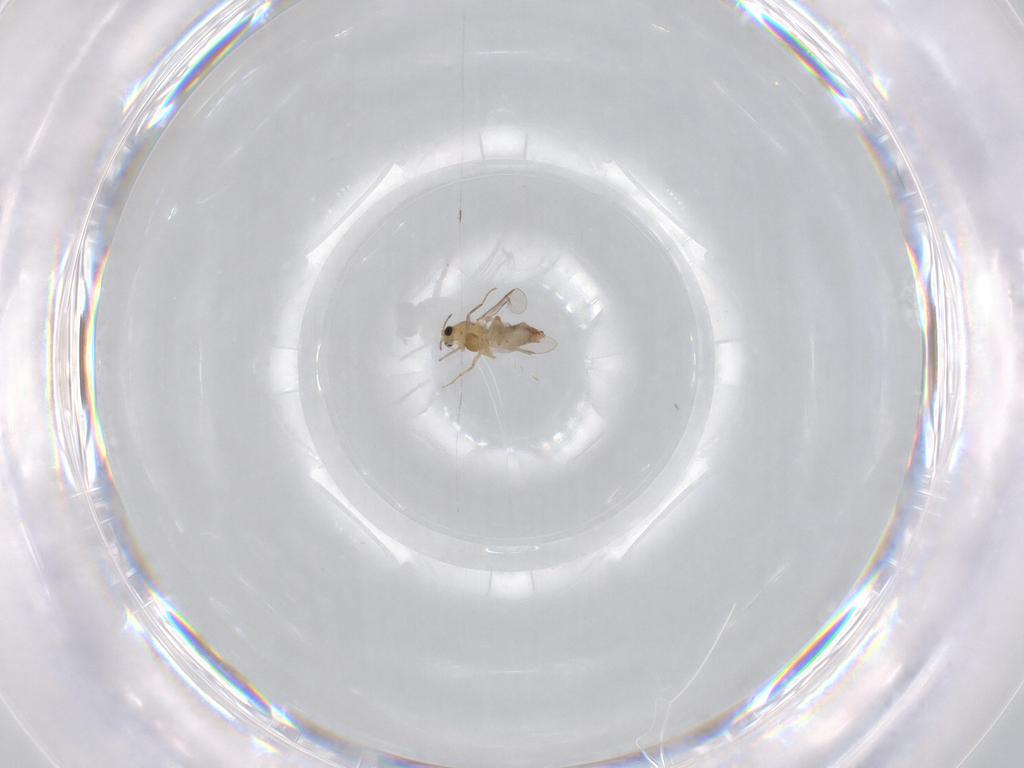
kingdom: Animalia
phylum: Arthropoda
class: Insecta
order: Diptera
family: Chironomidae
